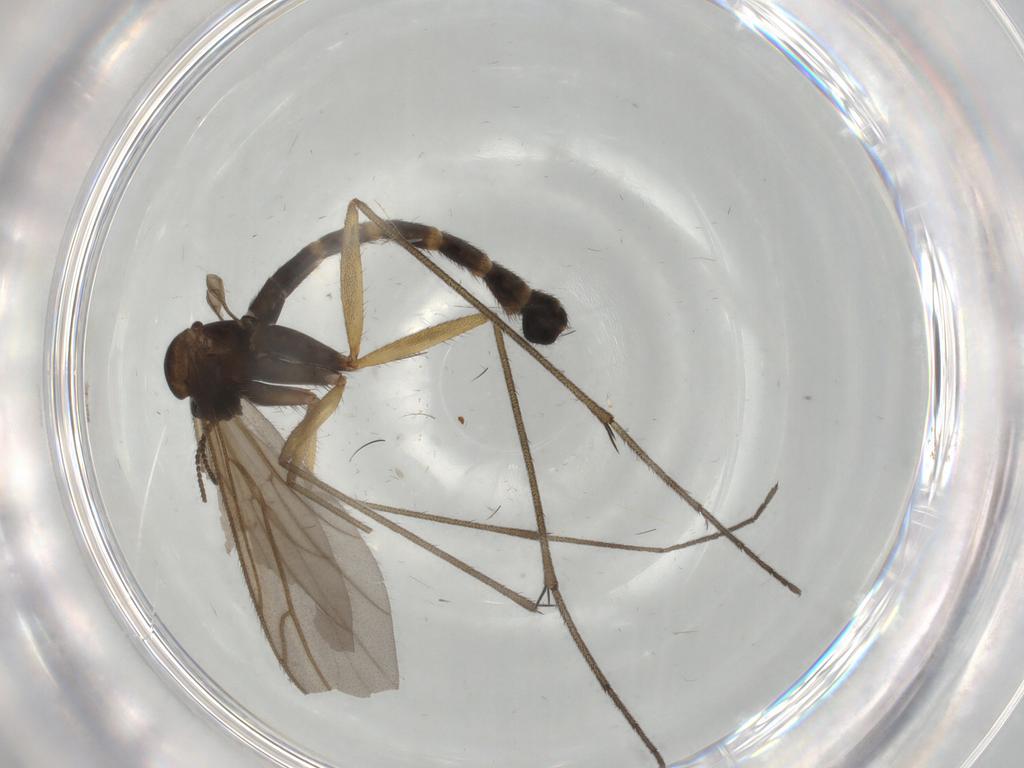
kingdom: Animalia
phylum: Arthropoda
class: Insecta
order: Diptera
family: Ditomyiidae
